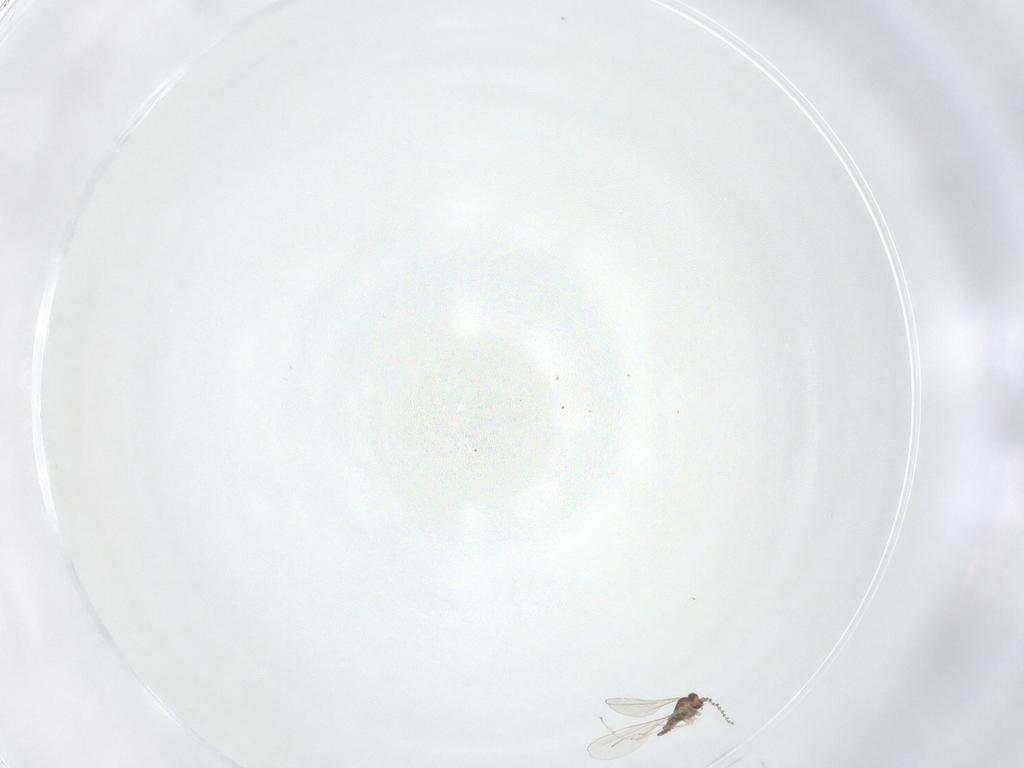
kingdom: Animalia
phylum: Arthropoda
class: Insecta
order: Diptera
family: Cecidomyiidae
